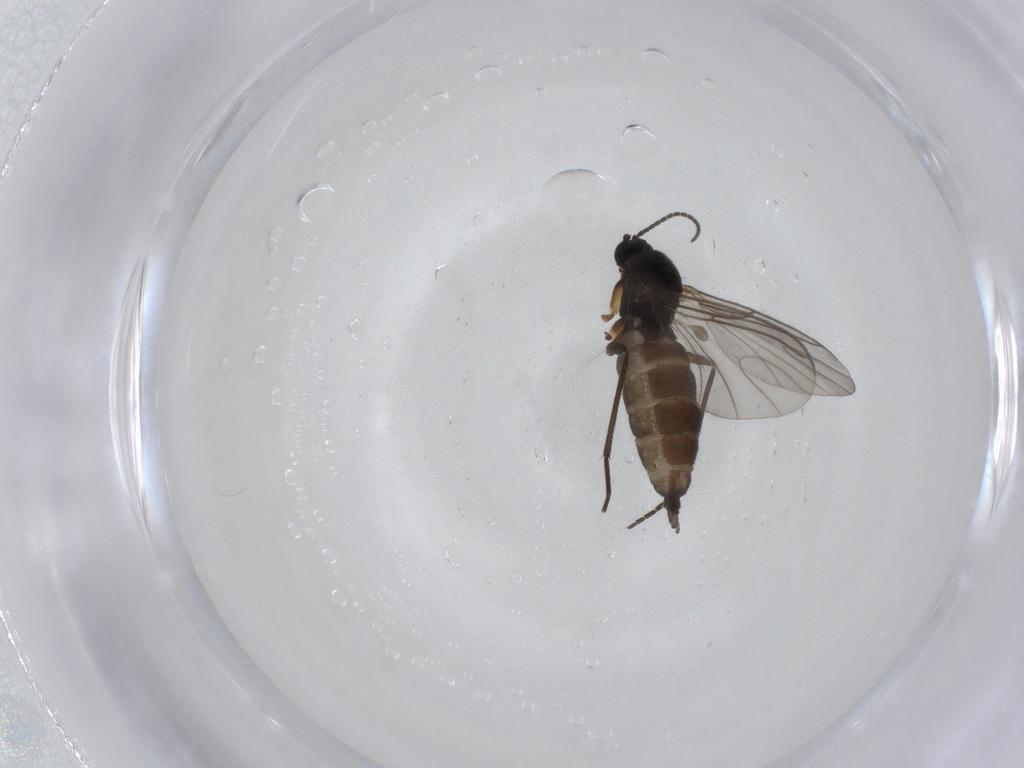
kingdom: Animalia
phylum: Arthropoda
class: Insecta
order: Diptera
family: Sciaridae
